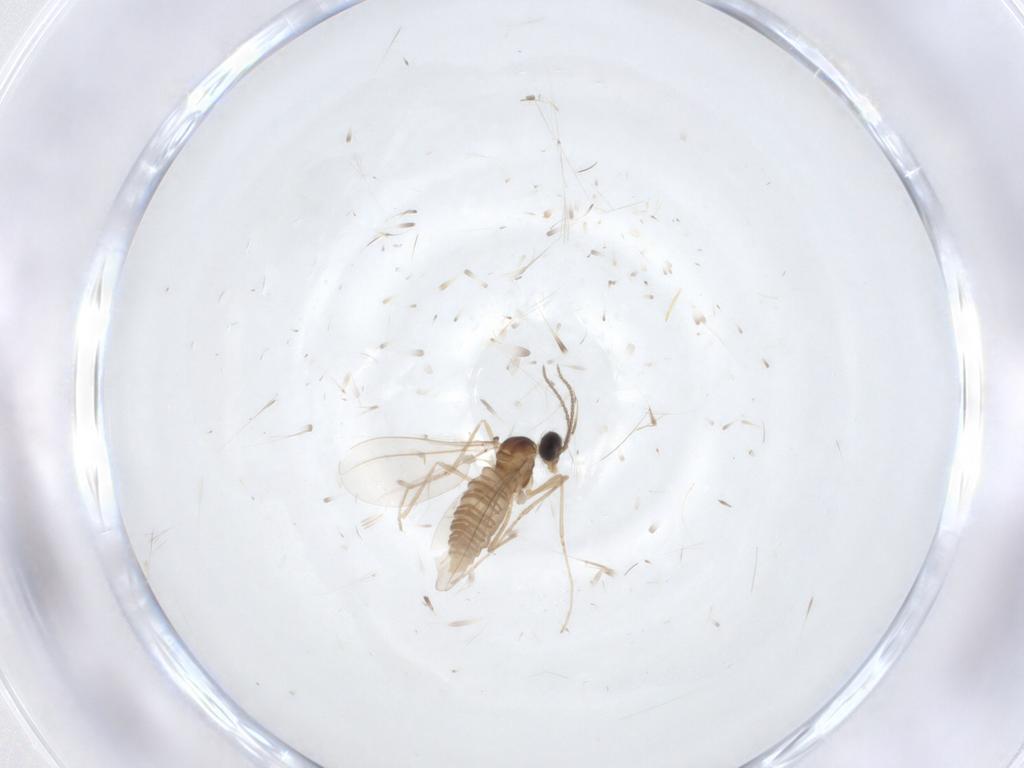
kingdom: Animalia
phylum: Arthropoda
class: Insecta
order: Diptera
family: Cecidomyiidae
